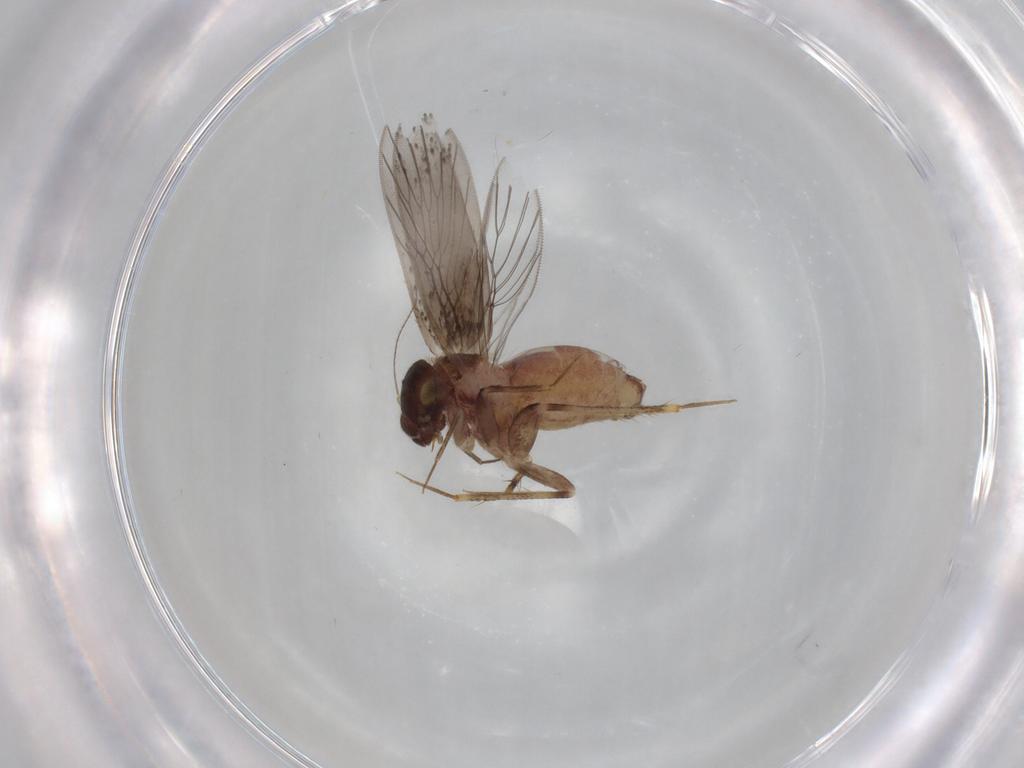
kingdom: Animalia
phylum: Arthropoda
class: Insecta
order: Psocodea
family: Lepidopsocidae
